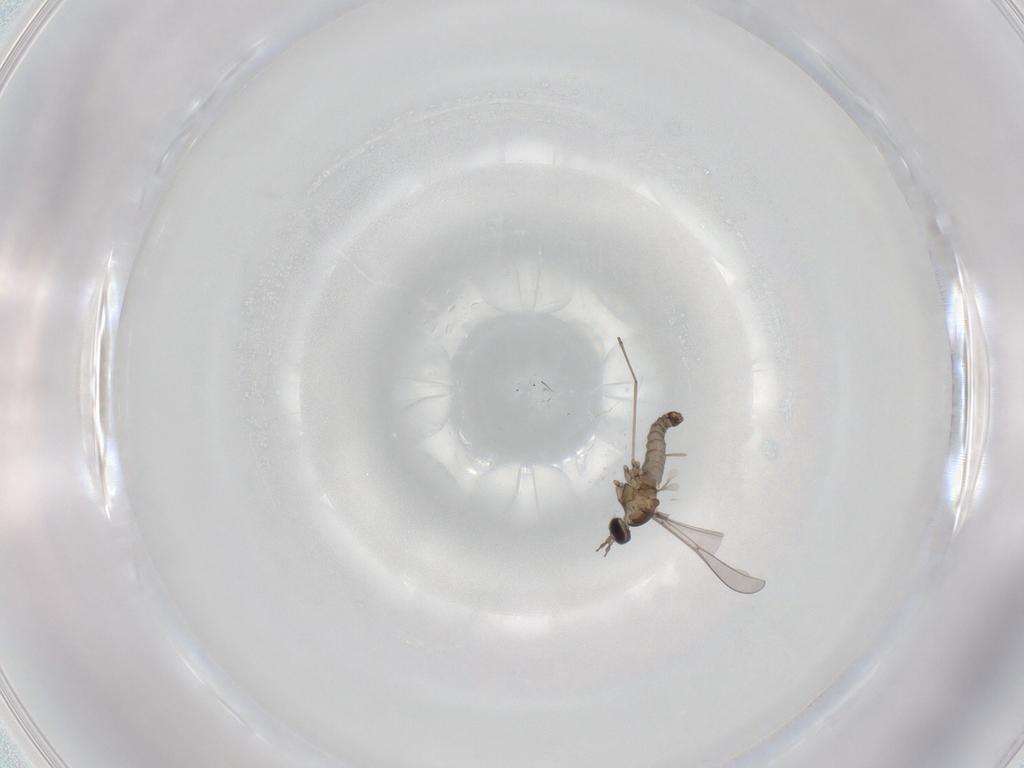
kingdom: Animalia
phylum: Arthropoda
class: Insecta
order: Diptera
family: Cecidomyiidae
